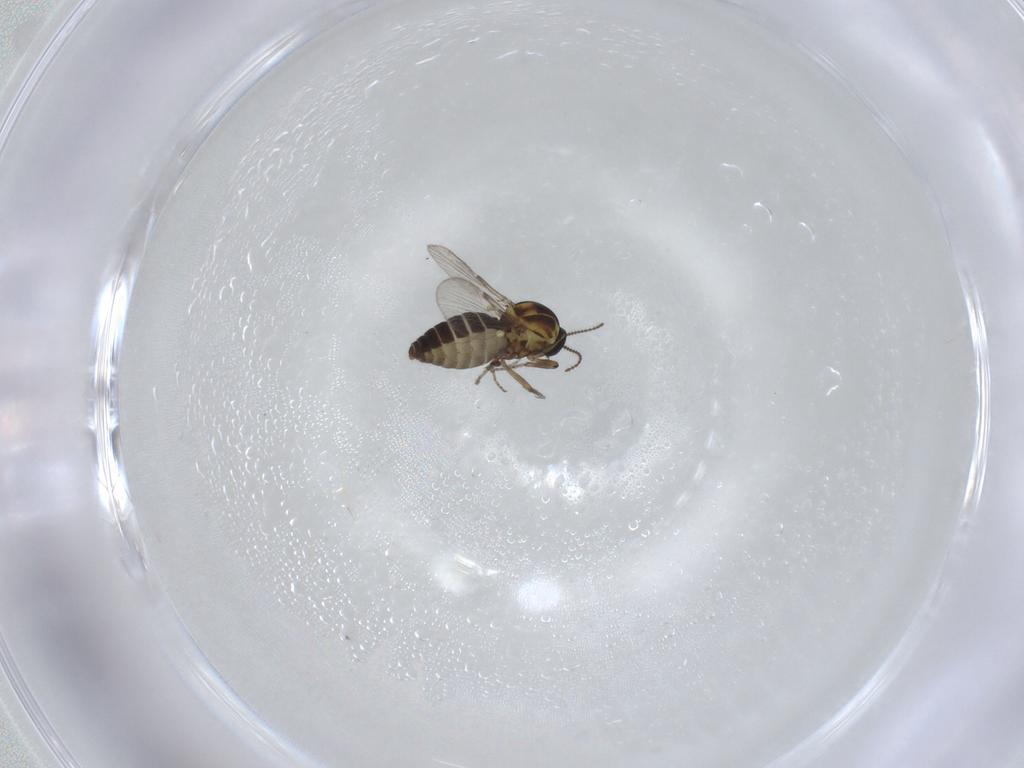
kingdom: Animalia
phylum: Arthropoda
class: Insecta
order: Diptera
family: Ceratopogonidae
